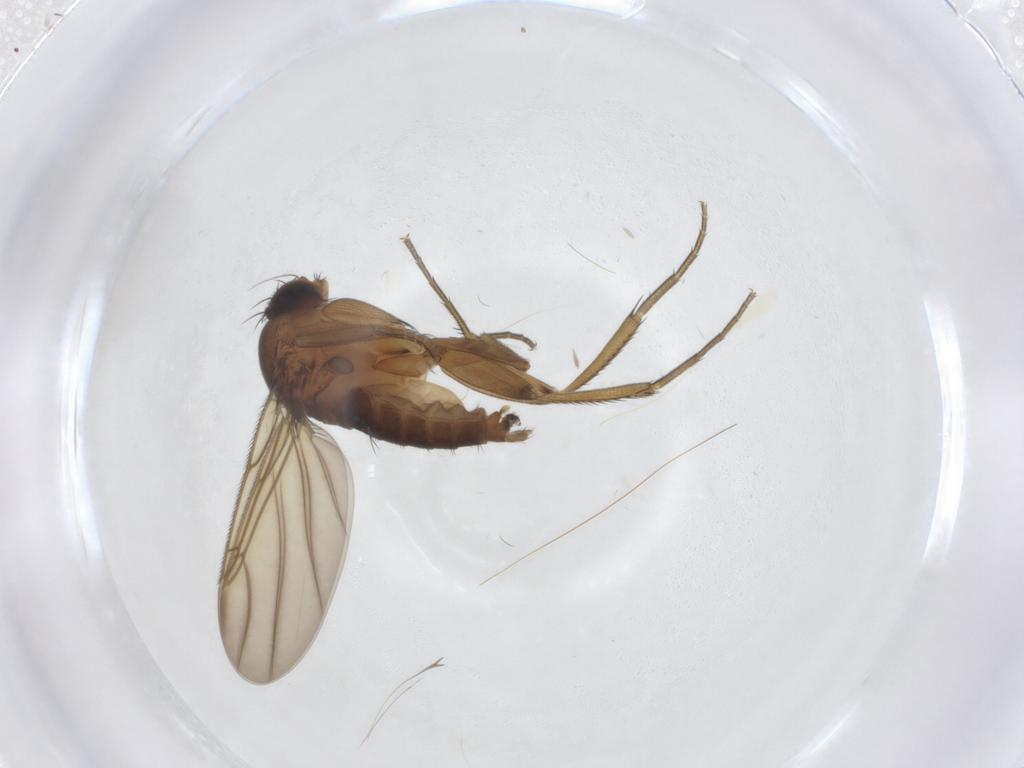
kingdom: Animalia
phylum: Arthropoda
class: Insecta
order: Diptera
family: Phoridae
